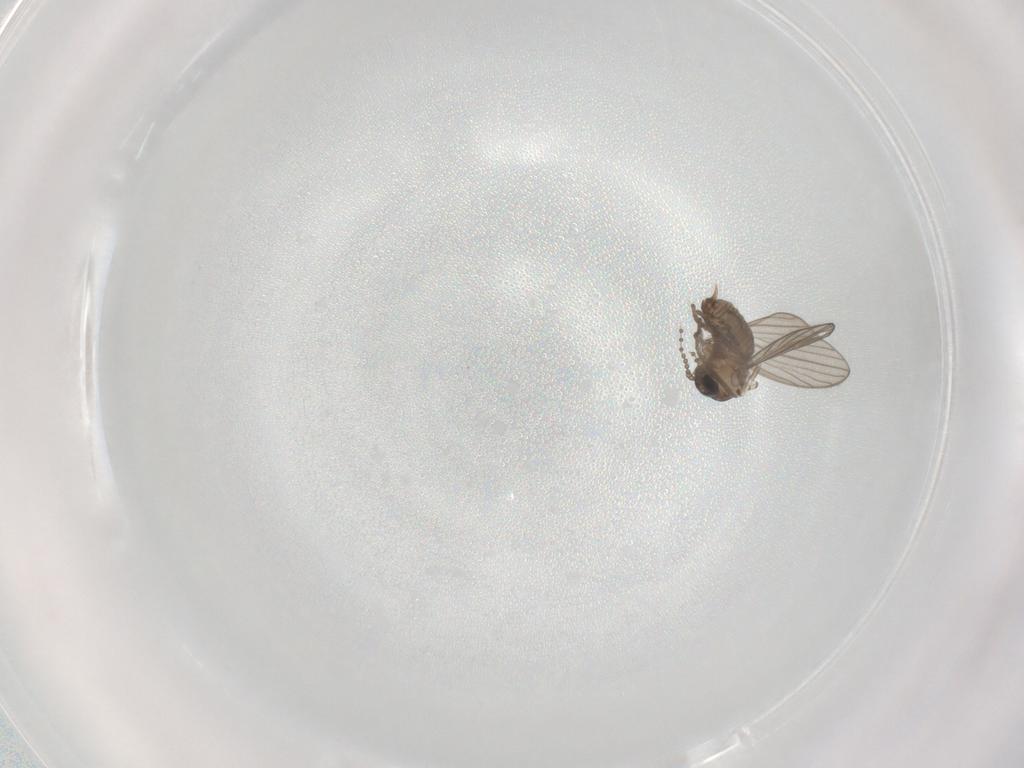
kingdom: Animalia
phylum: Arthropoda
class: Insecta
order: Diptera
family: Psychodidae
